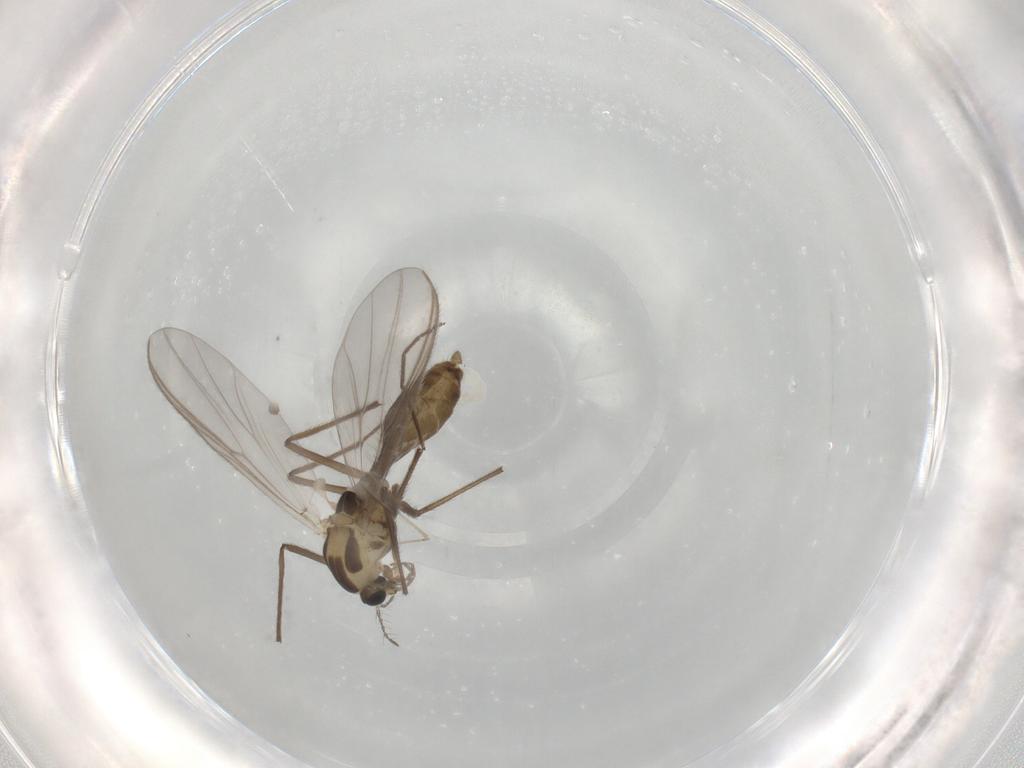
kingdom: Animalia
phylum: Arthropoda
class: Insecta
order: Diptera
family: Chironomidae
